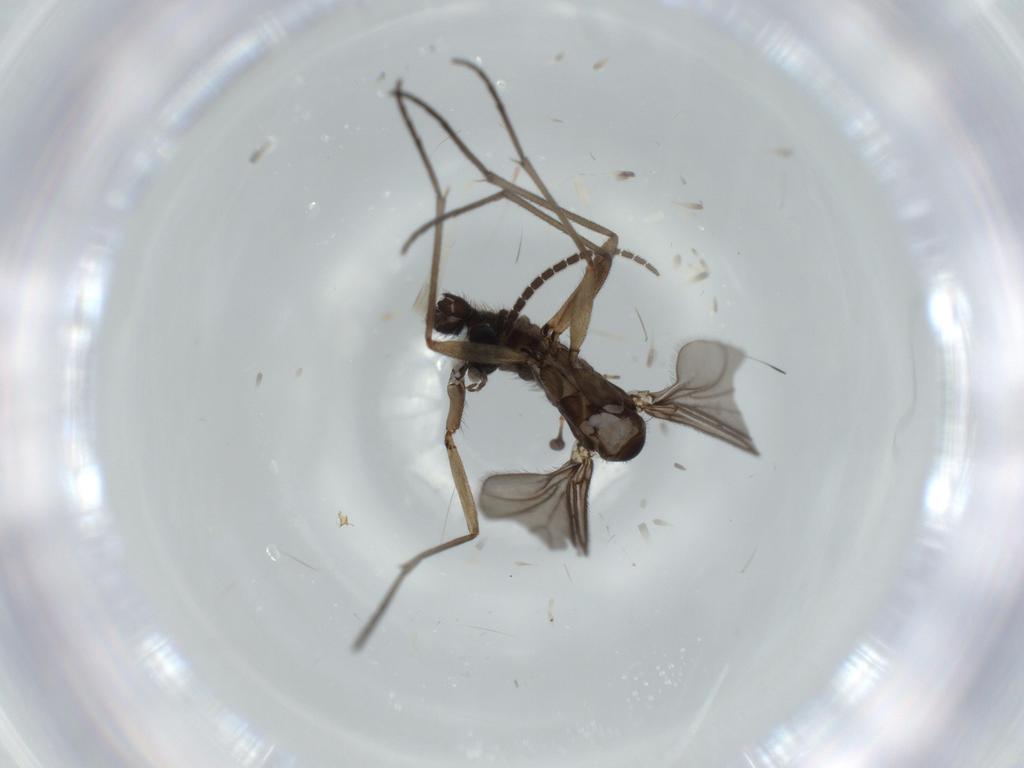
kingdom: Animalia
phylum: Arthropoda
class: Insecta
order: Diptera
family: Sciaridae
